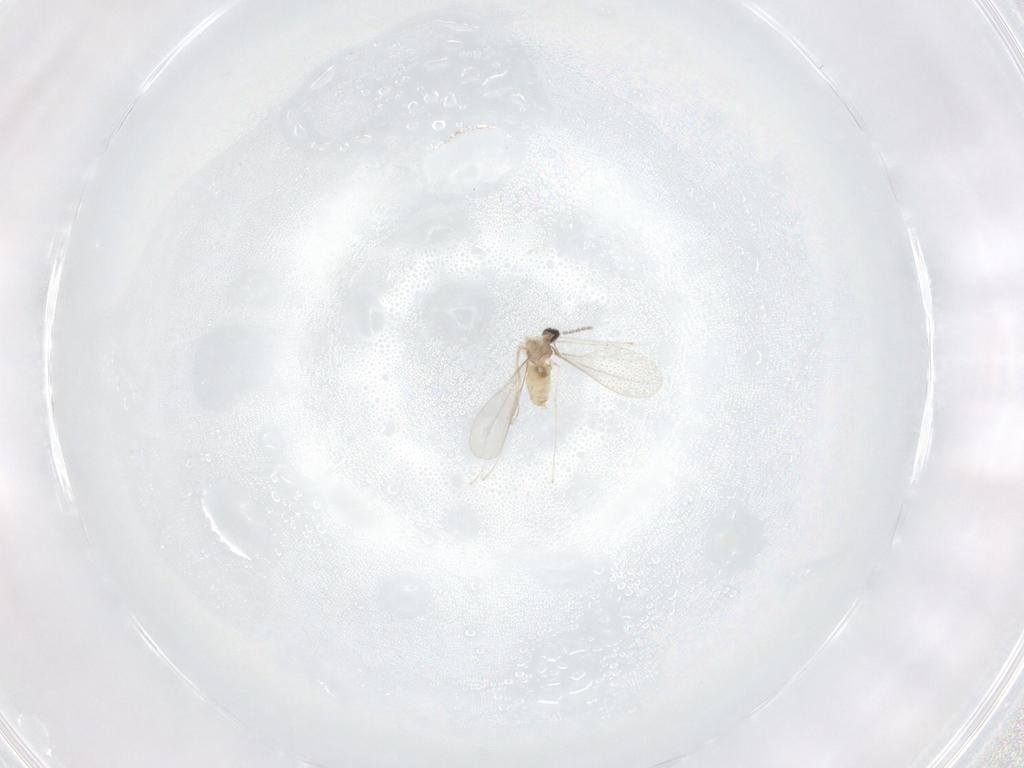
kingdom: Animalia
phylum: Arthropoda
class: Insecta
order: Diptera
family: Cecidomyiidae
